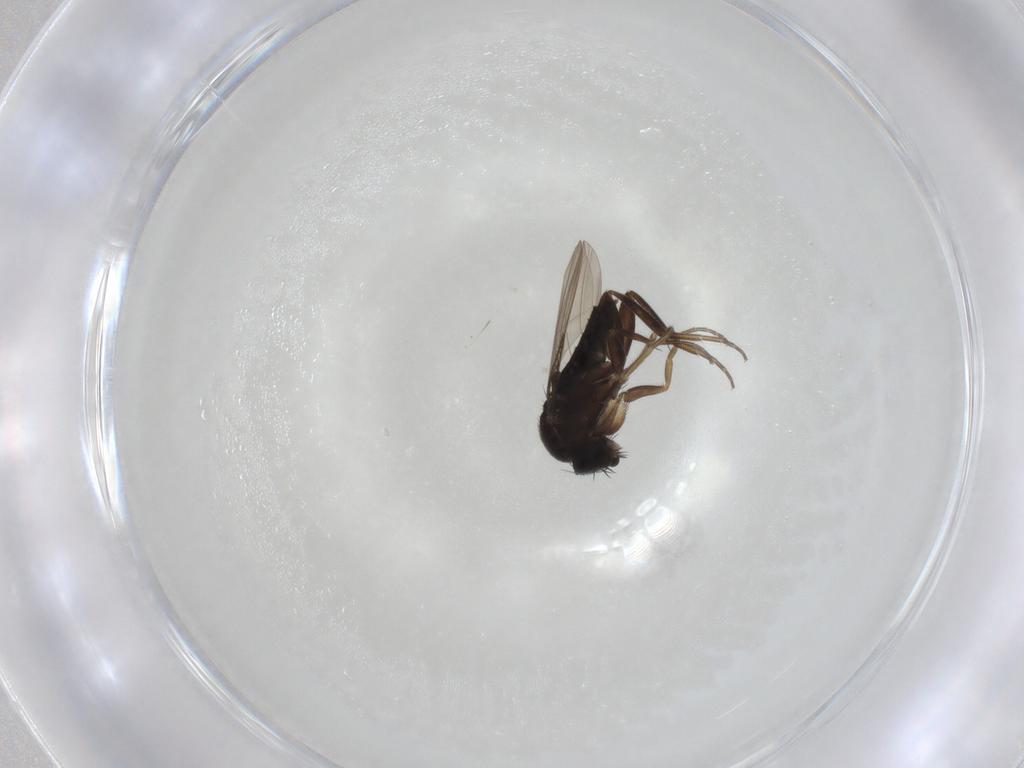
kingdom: Animalia
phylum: Arthropoda
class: Insecta
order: Diptera
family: Phoridae
